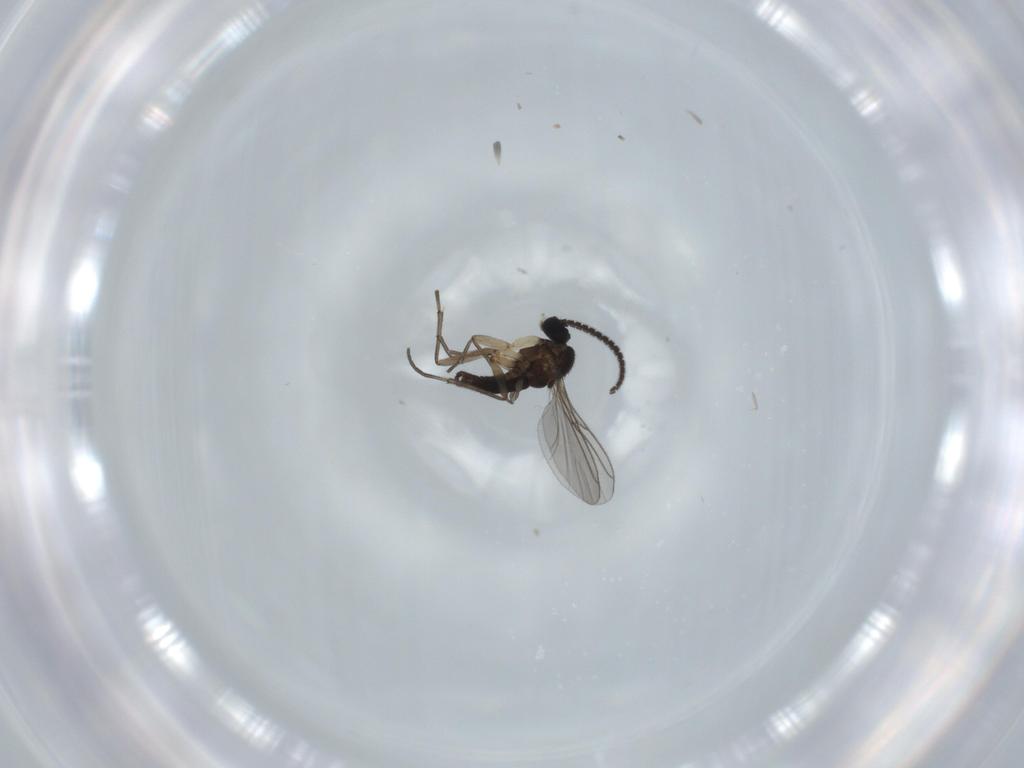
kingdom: Animalia
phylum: Arthropoda
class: Insecta
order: Diptera
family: Sciaridae
